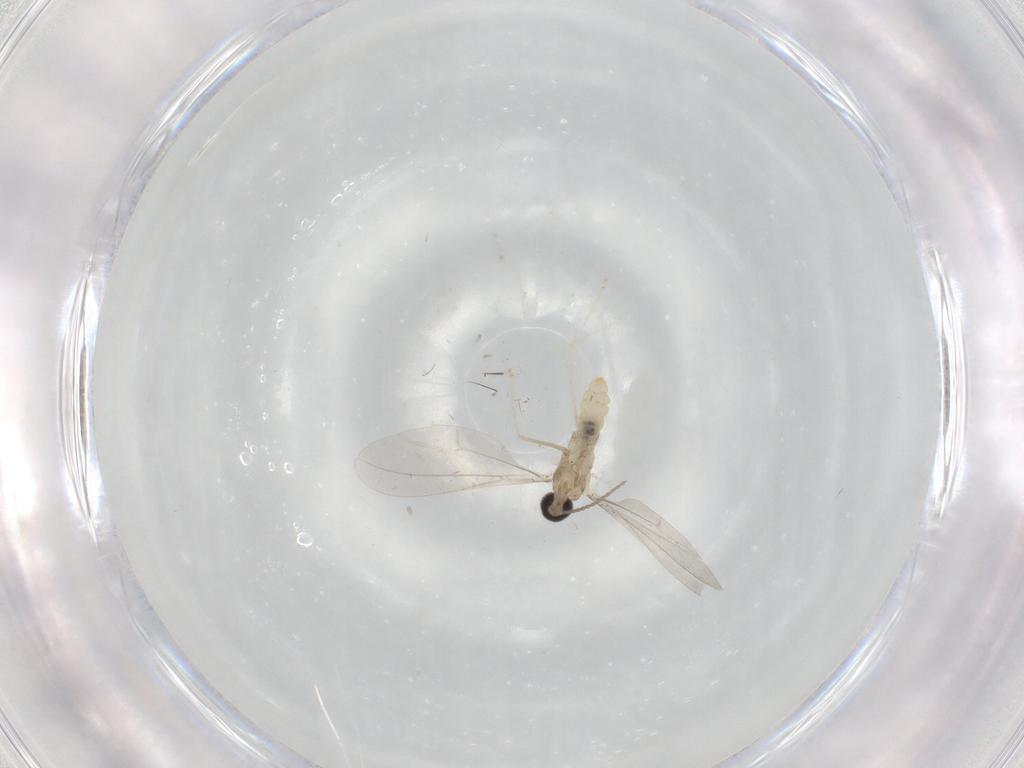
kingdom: Animalia
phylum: Arthropoda
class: Insecta
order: Diptera
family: Cecidomyiidae
